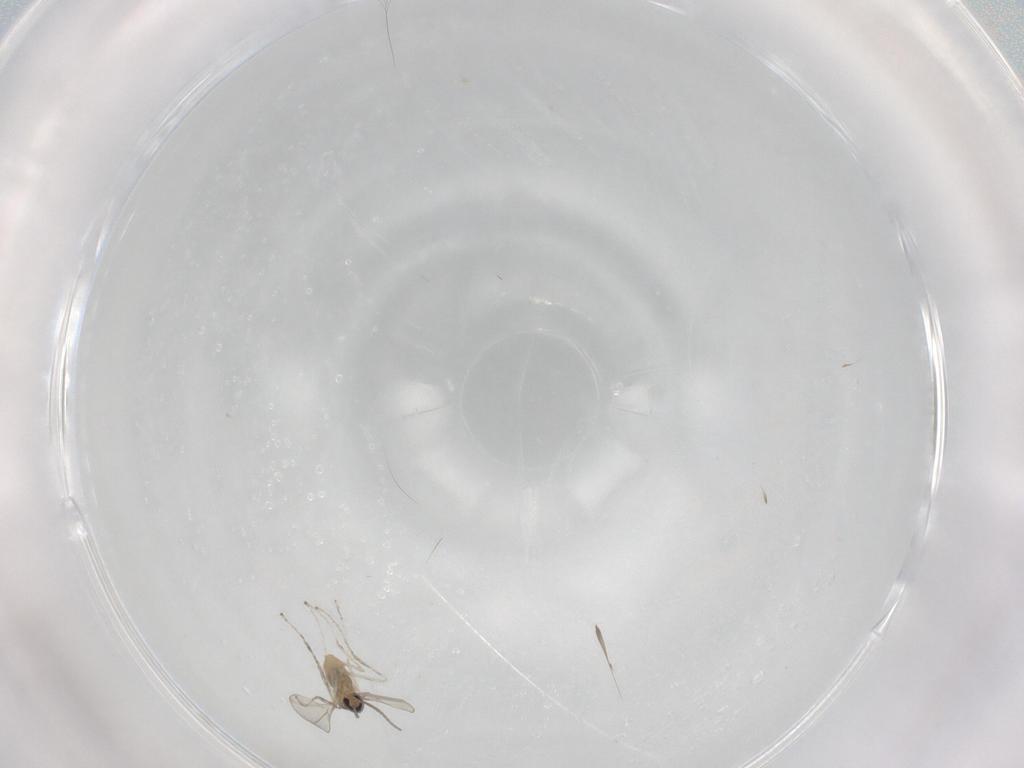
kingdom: Animalia
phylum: Arthropoda
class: Insecta
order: Diptera
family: Cecidomyiidae
